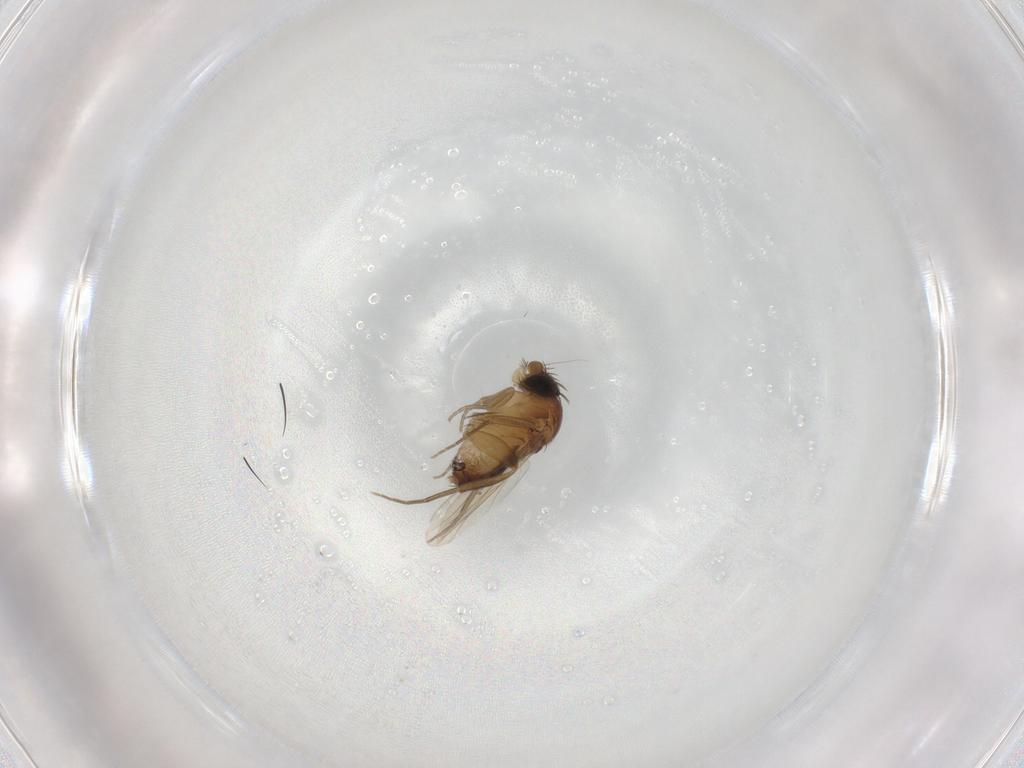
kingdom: Animalia
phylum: Arthropoda
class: Insecta
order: Diptera
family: Phoridae
